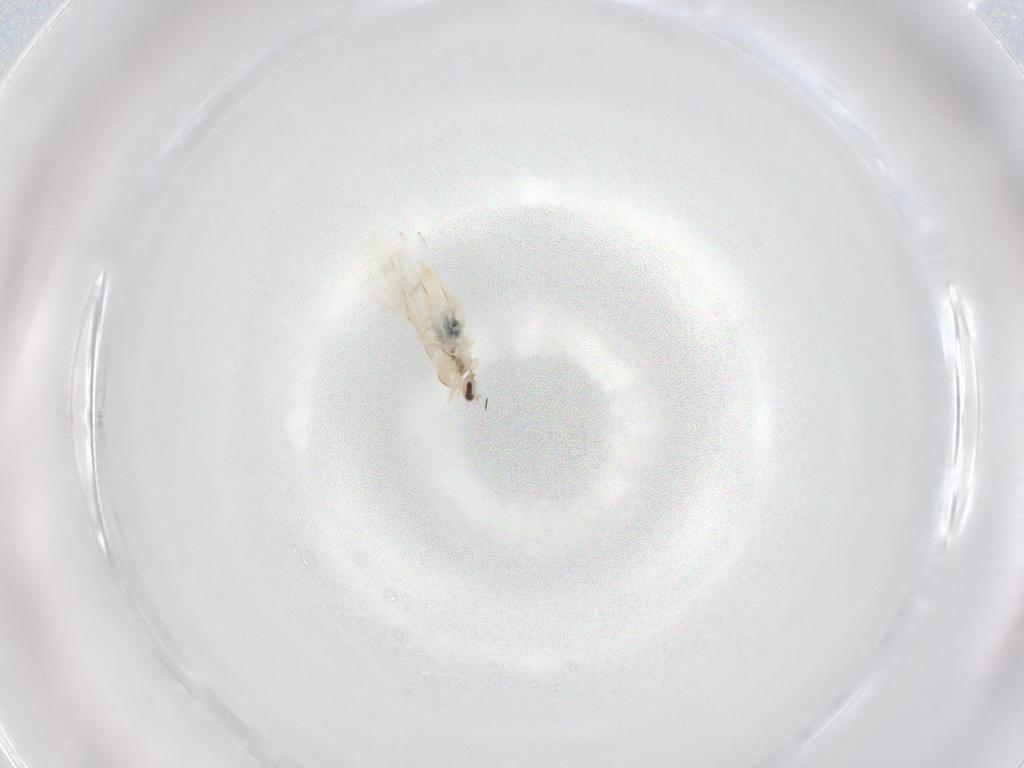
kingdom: Animalia
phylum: Arthropoda
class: Insecta
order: Diptera
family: Cecidomyiidae
